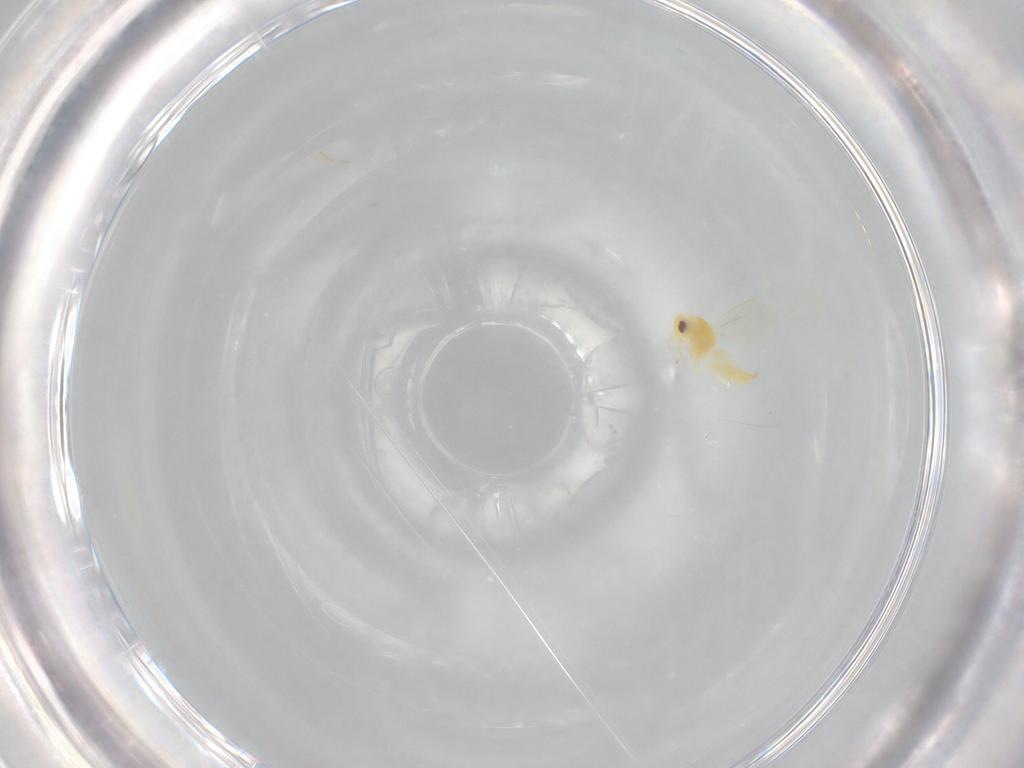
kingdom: Animalia
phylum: Arthropoda
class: Insecta
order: Hemiptera
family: Aleyrodidae
